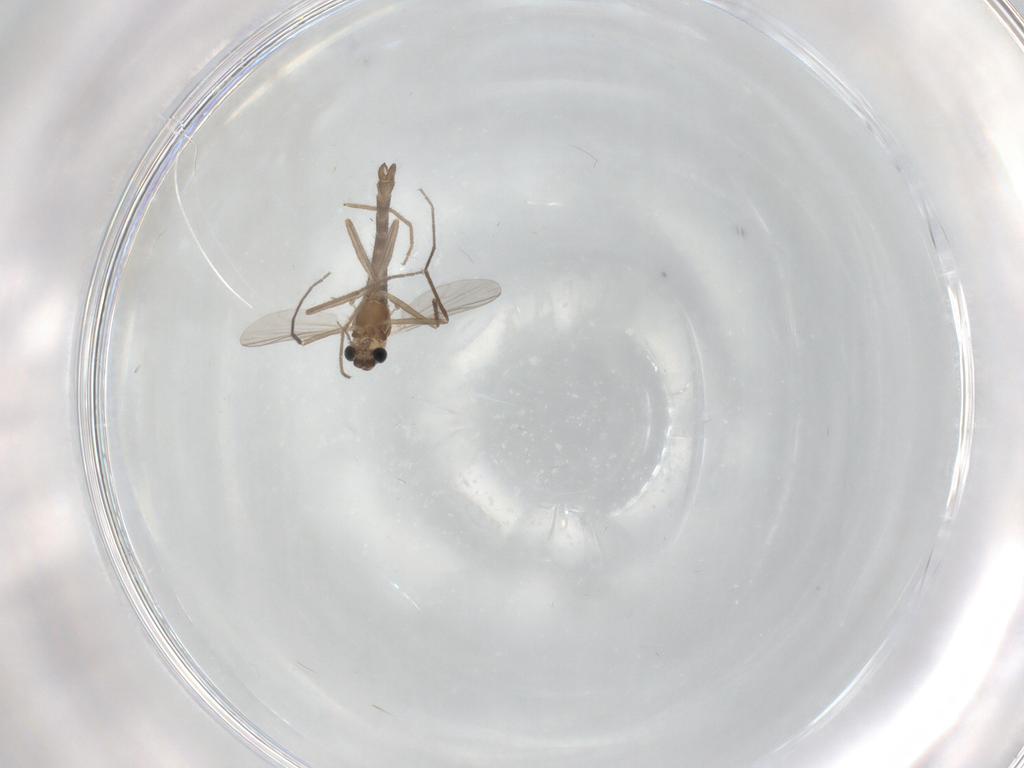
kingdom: Animalia
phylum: Arthropoda
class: Insecta
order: Diptera
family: Chironomidae
